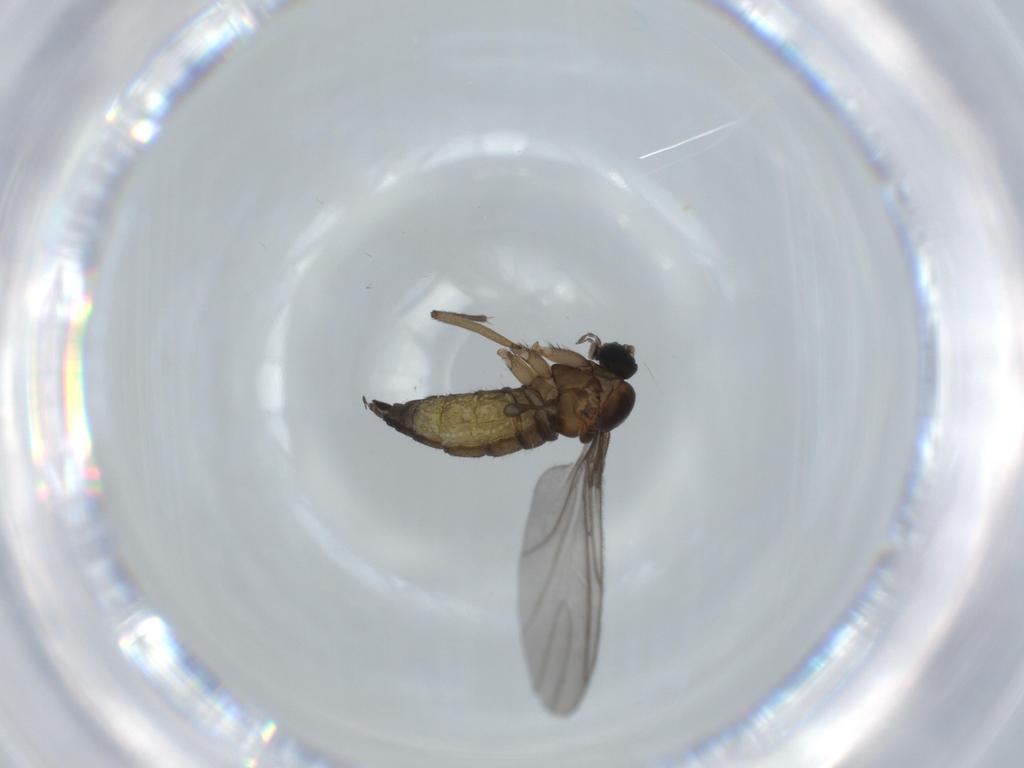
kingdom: Animalia
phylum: Arthropoda
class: Insecta
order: Diptera
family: Sciaridae
